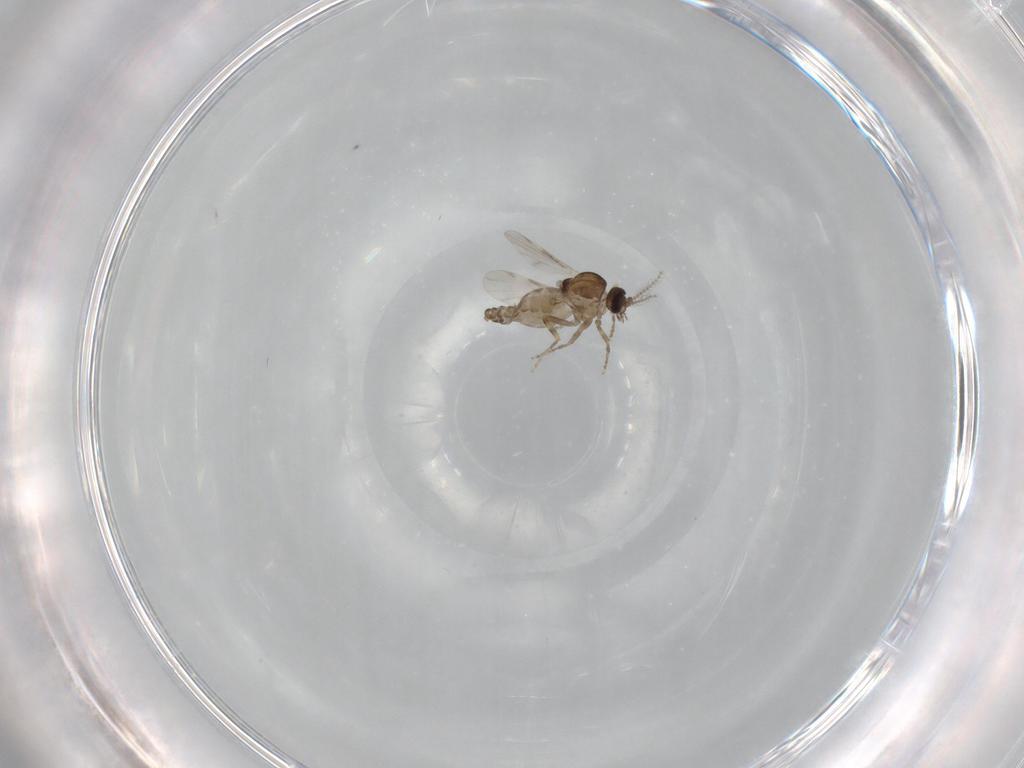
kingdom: Animalia
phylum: Arthropoda
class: Insecta
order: Diptera
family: Ceratopogonidae
